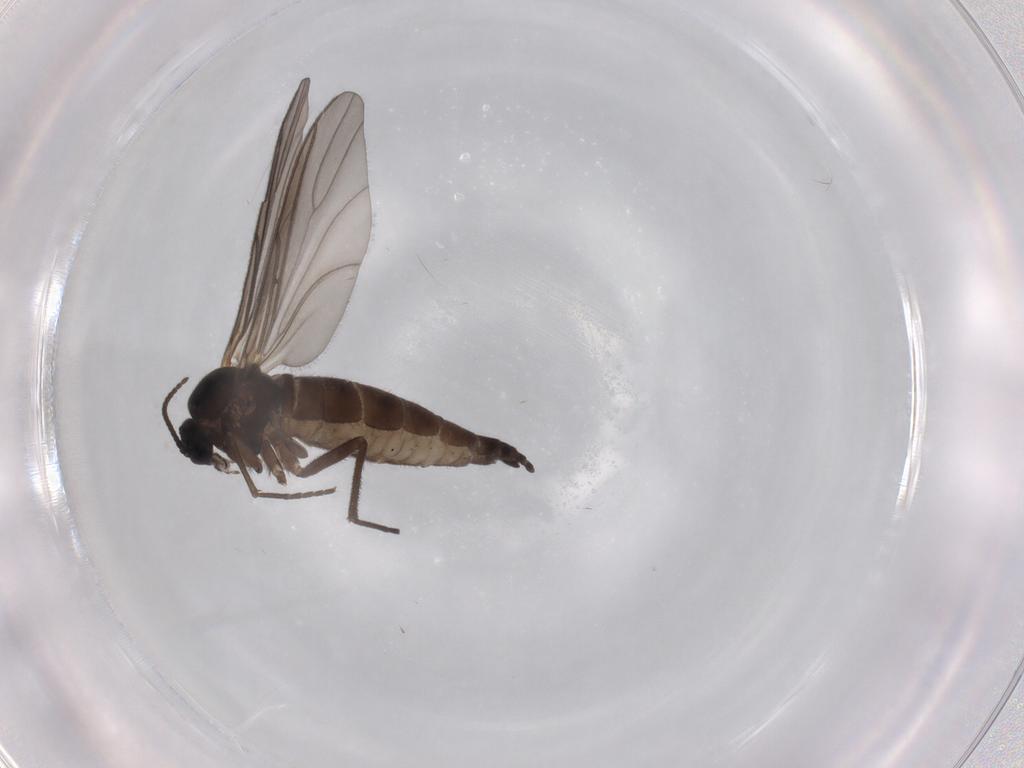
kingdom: Animalia
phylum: Arthropoda
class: Insecta
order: Diptera
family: Sciaridae
